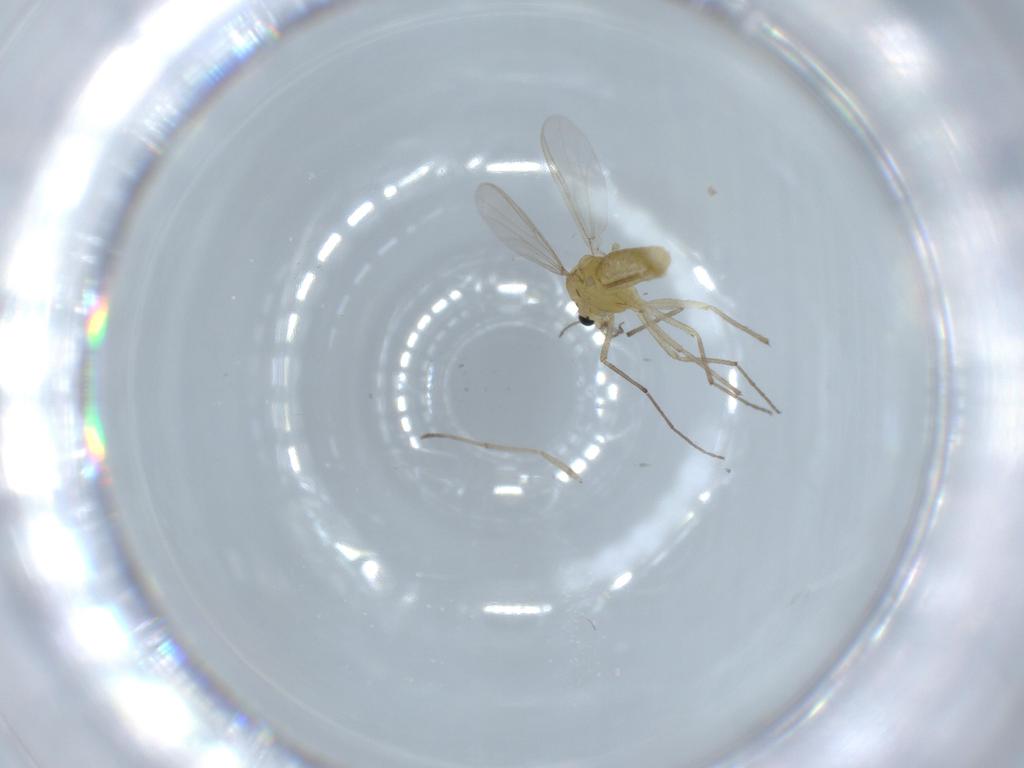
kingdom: Animalia
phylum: Arthropoda
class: Insecta
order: Diptera
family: Chironomidae
